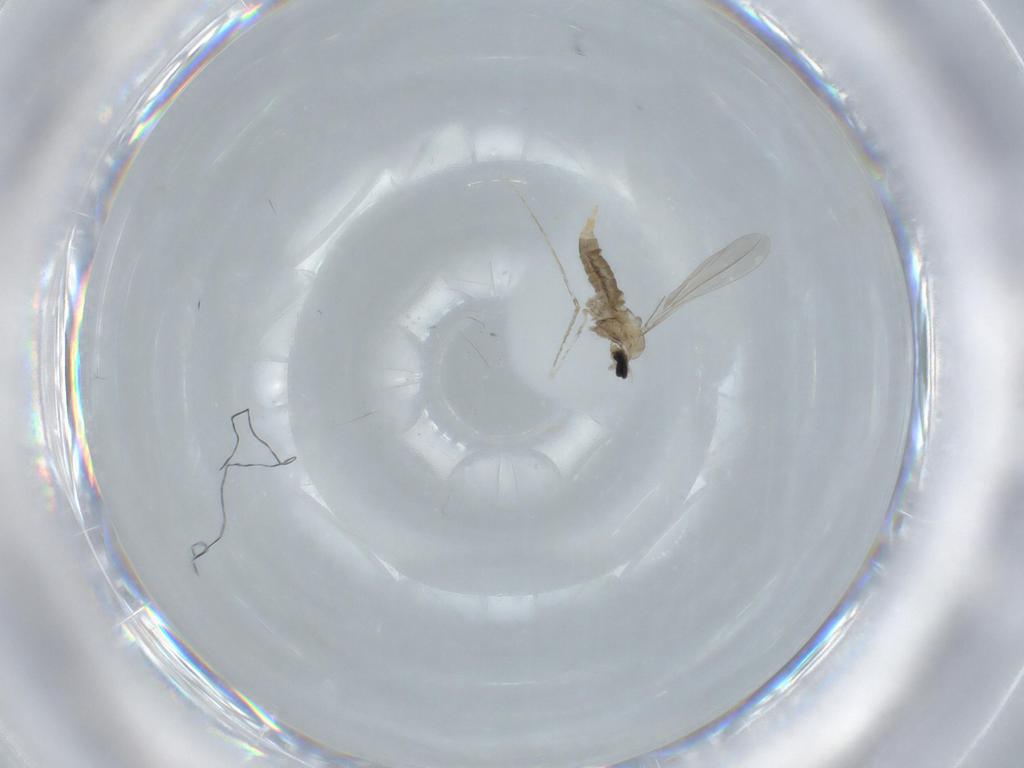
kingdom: Animalia
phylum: Arthropoda
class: Insecta
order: Diptera
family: Cecidomyiidae
